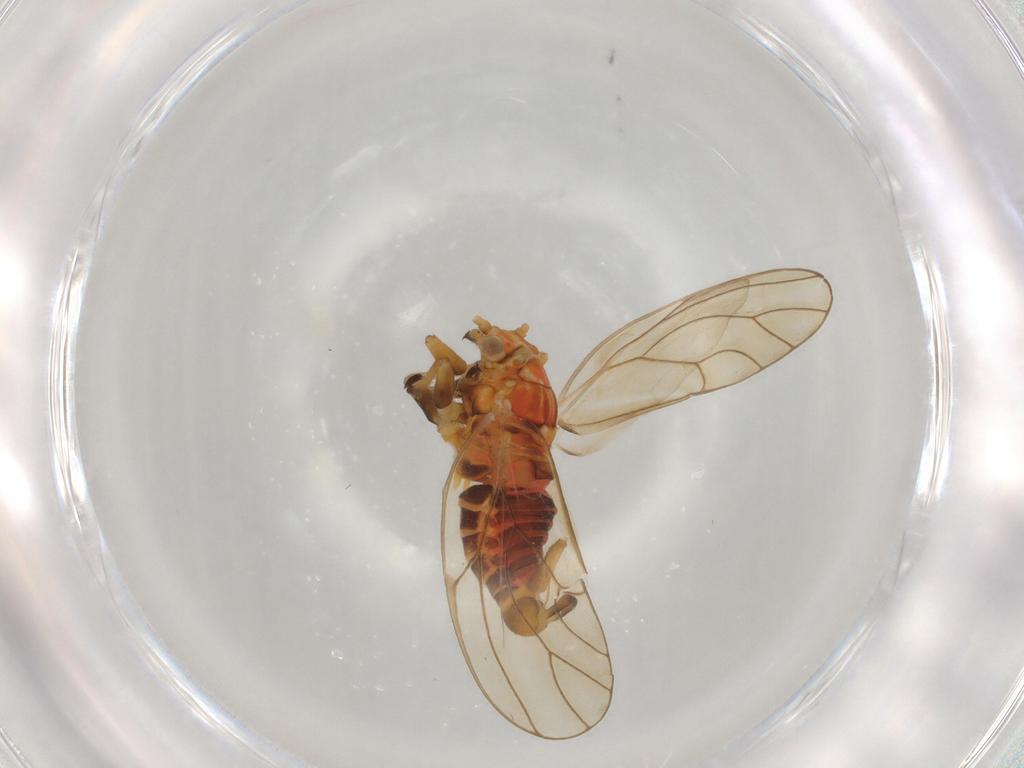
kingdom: Animalia
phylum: Arthropoda
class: Insecta
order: Hemiptera
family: Psyllidae
